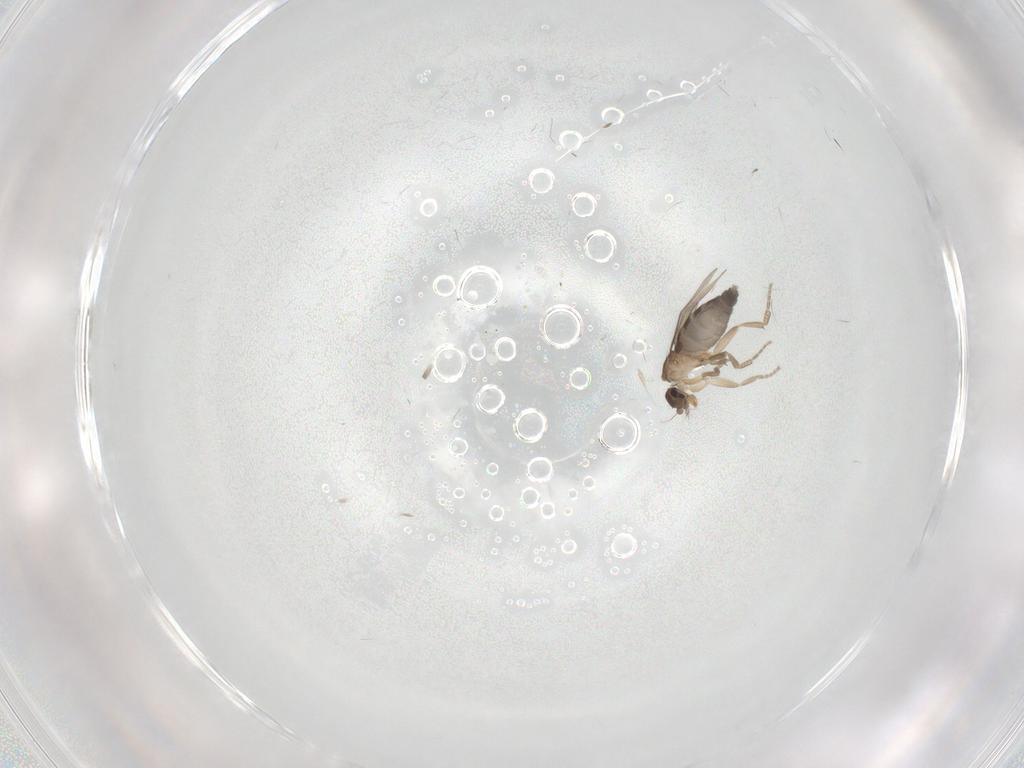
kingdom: Animalia
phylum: Arthropoda
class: Insecta
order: Diptera
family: Phoridae
